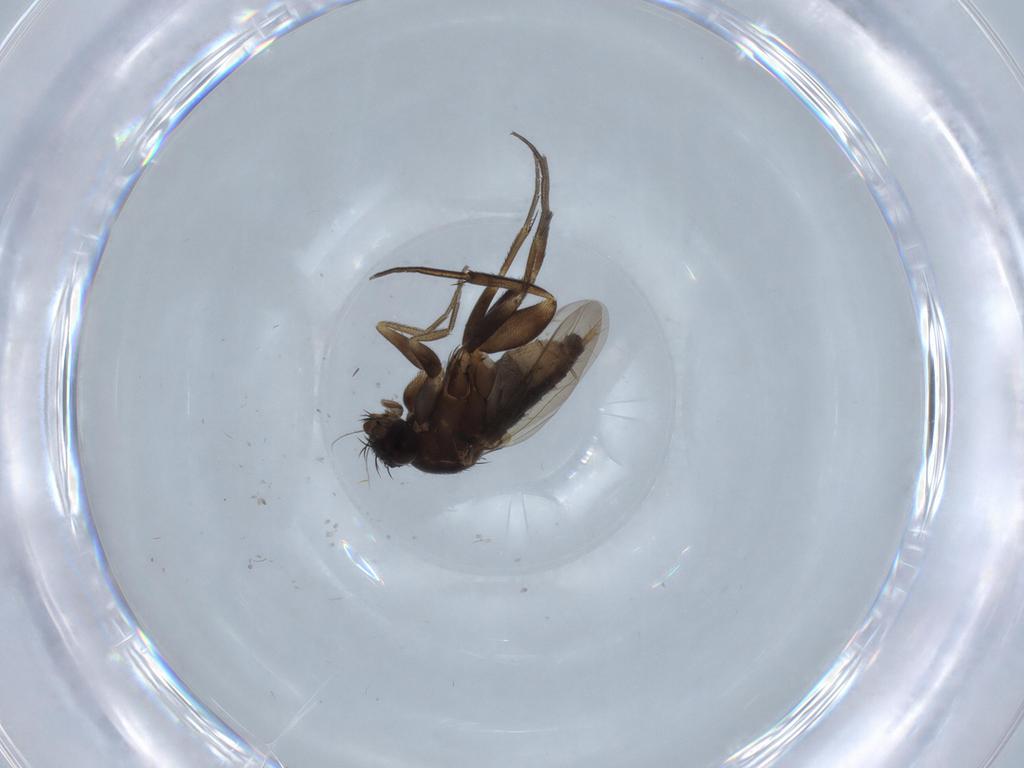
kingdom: Animalia
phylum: Arthropoda
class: Insecta
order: Diptera
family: Phoridae
